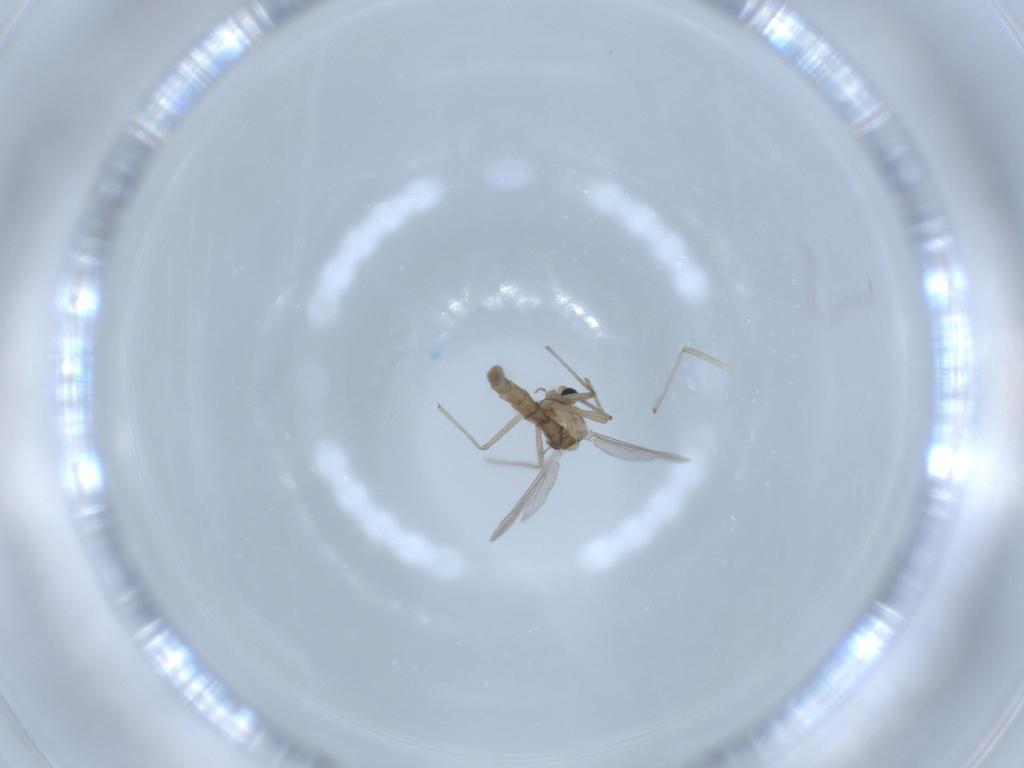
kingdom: Animalia
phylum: Arthropoda
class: Insecta
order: Diptera
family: Chironomidae
